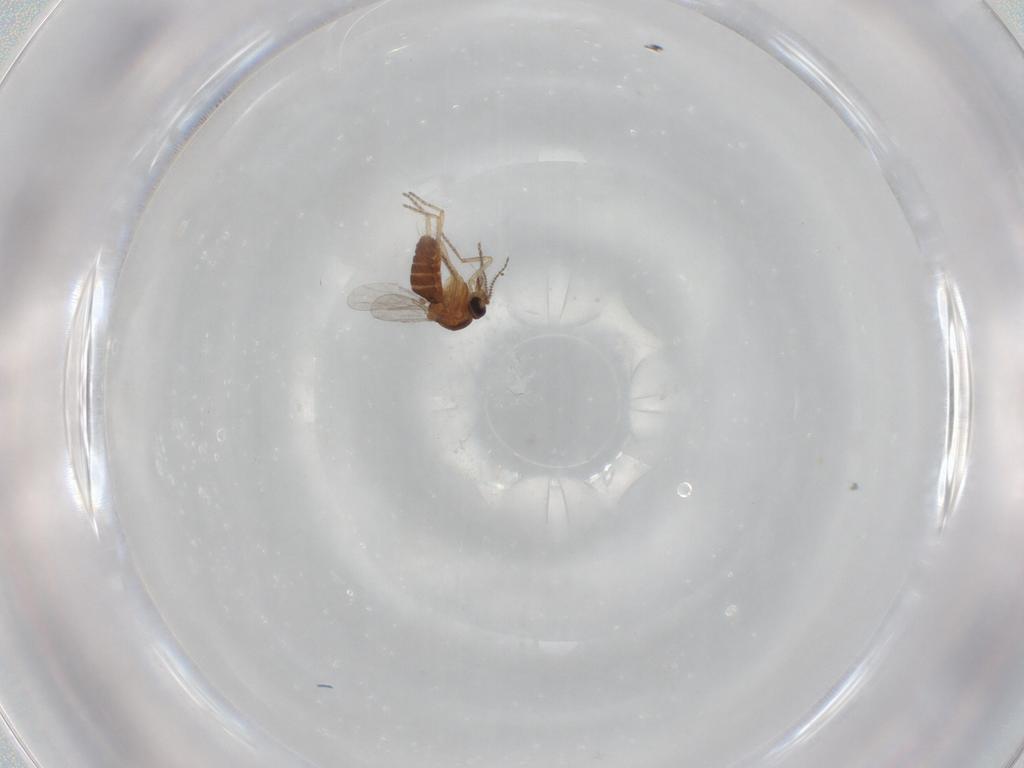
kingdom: Animalia
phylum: Arthropoda
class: Insecta
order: Diptera
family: Ceratopogonidae
